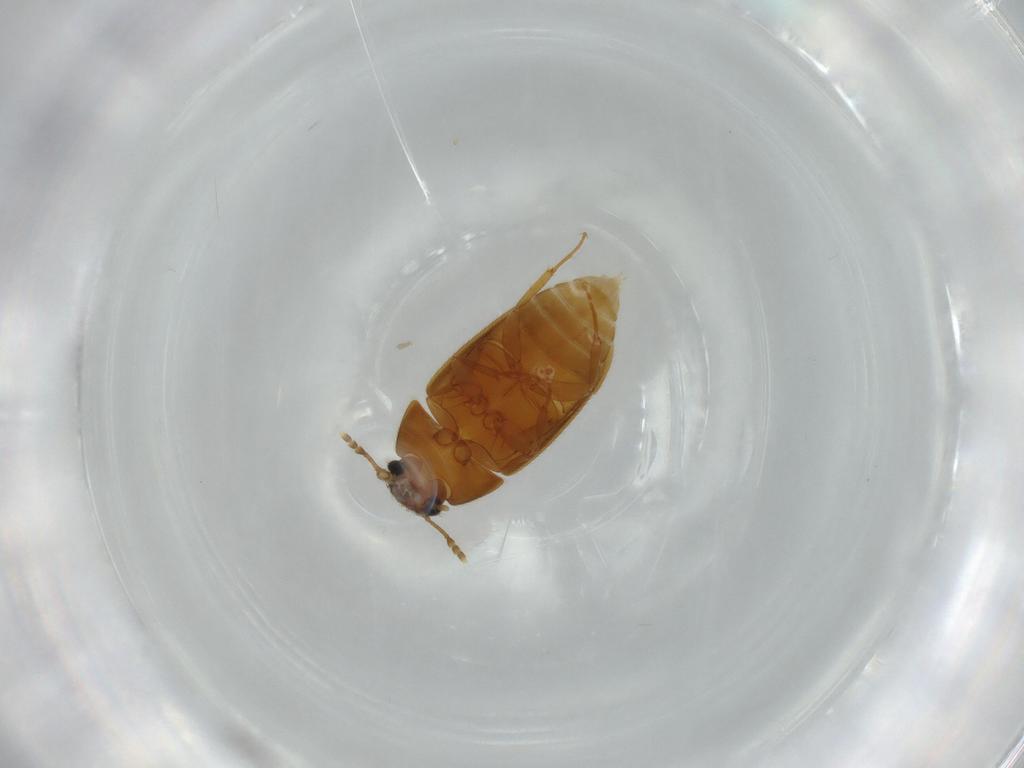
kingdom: Animalia
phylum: Arthropoda
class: Insecta
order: Coleoptera
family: Mycetophagidae
